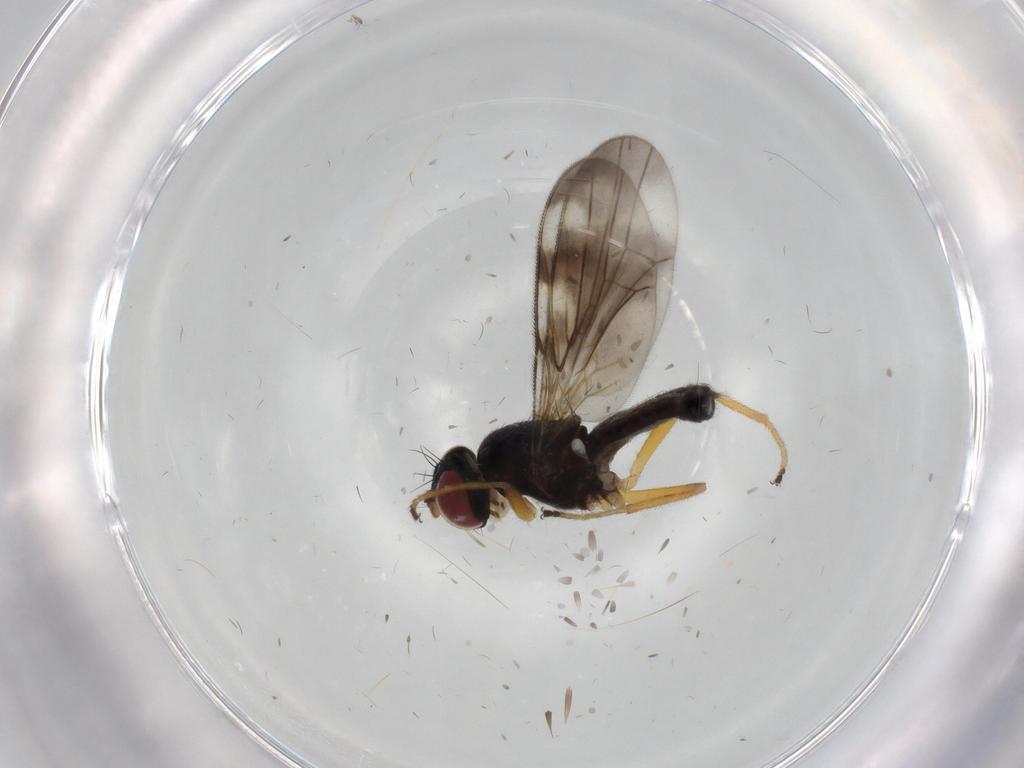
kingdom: Animalia
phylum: Arthropoda
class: Insecta
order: Diptera
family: Periscelididae
